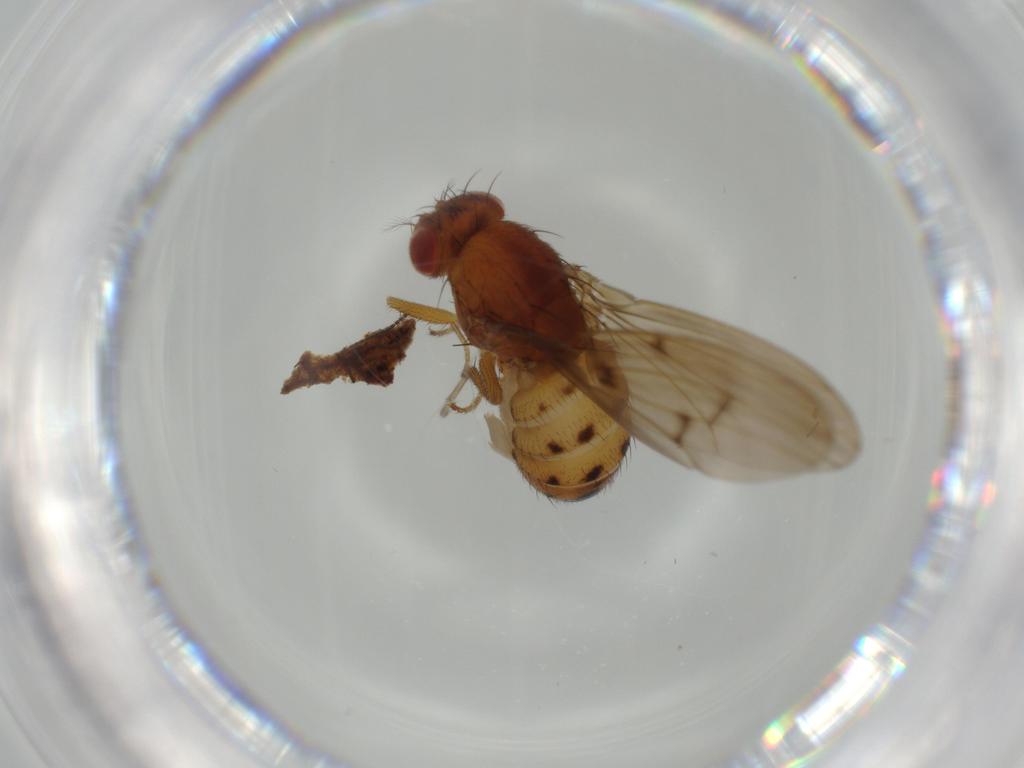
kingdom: Animalia
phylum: Arthropoda
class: Insecta
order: Diptera
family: Cecidomyiidae
